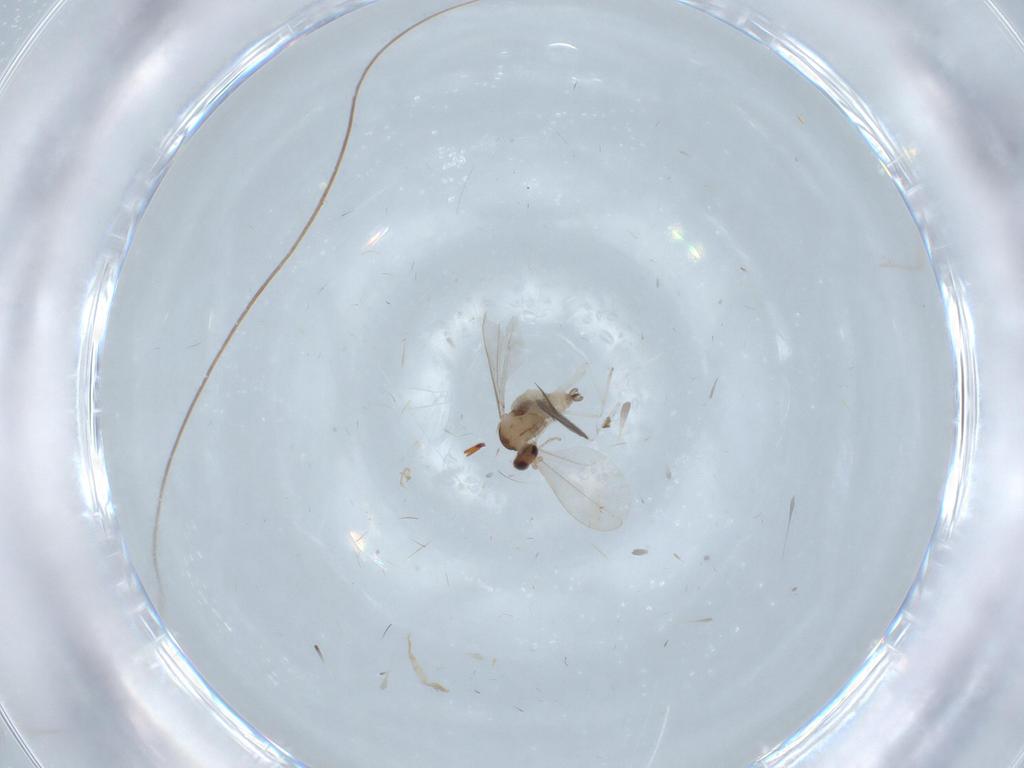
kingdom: Animalia
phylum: Arthropoda
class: Insecta
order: Diptera
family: Cecidomyiidae
